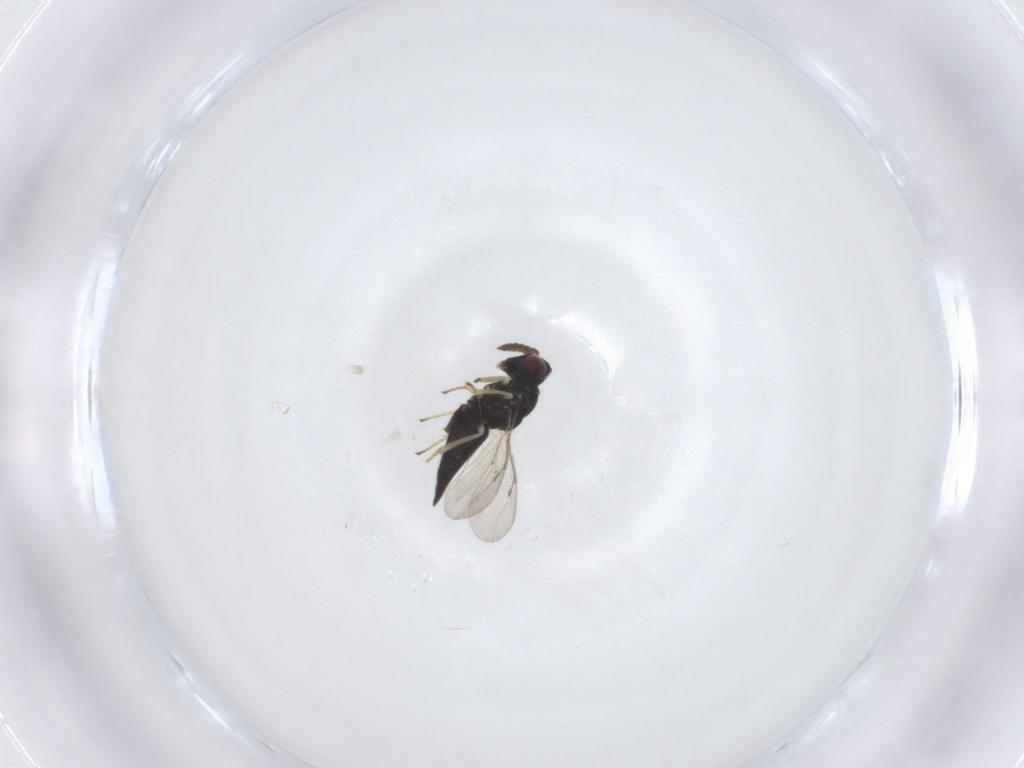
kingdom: Animalia
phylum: Arthropoda
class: Insecta
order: Hymenoptera
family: Eulophidae
